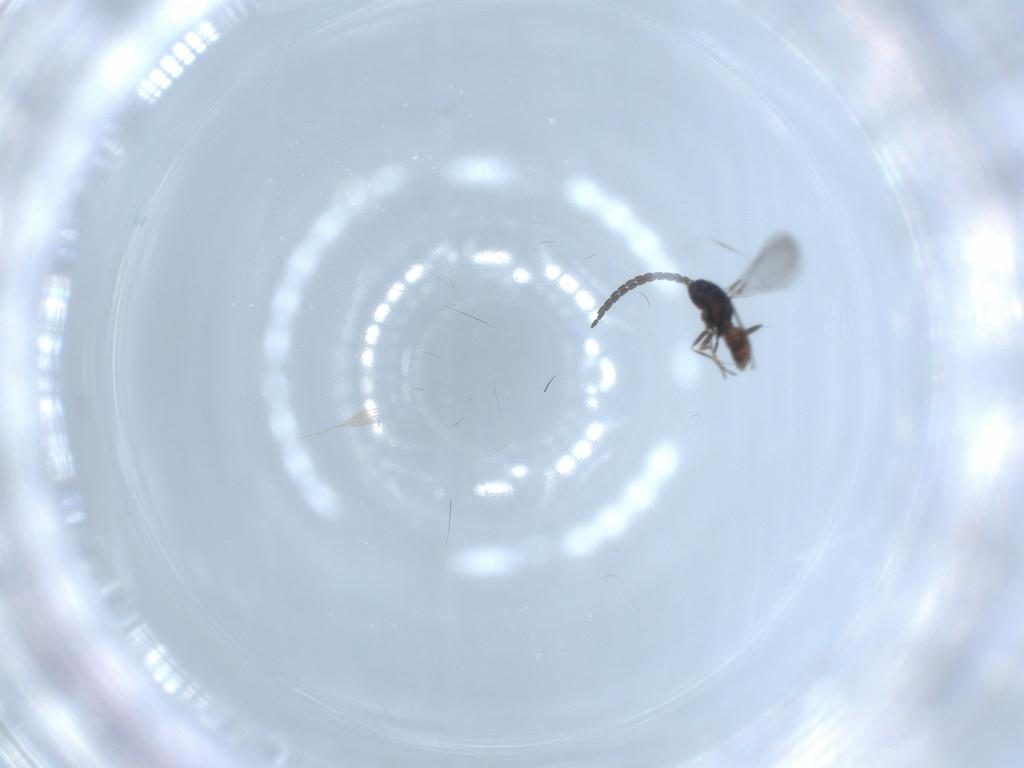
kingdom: Animalia
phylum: Arthropoda
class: Insecta
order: Hymenoptera
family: Mymaridae
